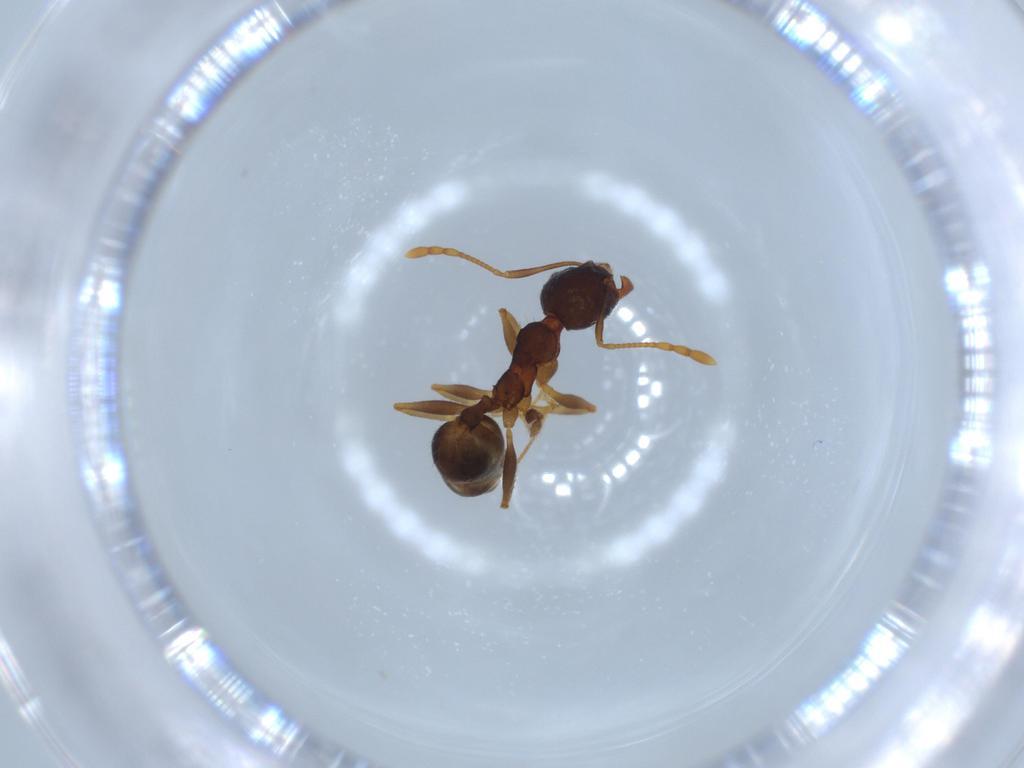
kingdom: Animalia
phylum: Arthropoda
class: Insecta
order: Hymenoptera
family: Formicidae
